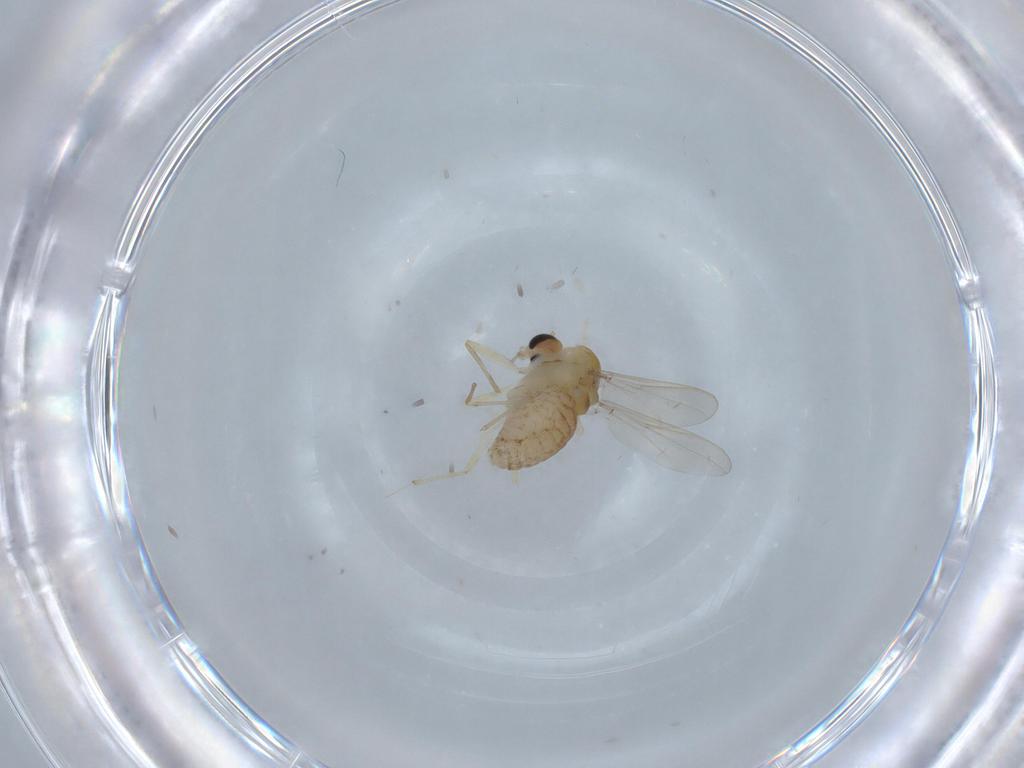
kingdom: Animalia
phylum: Arthropoda
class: Insecta
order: Diptera
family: Chironomidae
